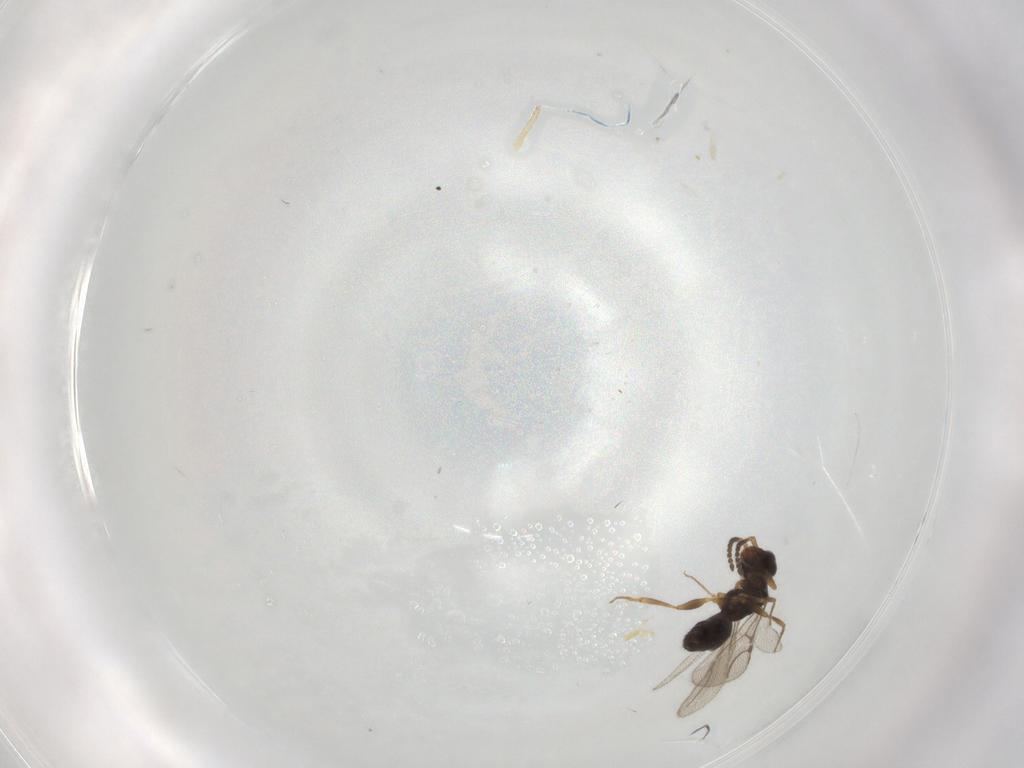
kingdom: Animalia
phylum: Arthropoda
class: Insecta
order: Hymenoptera
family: Bethylidae
